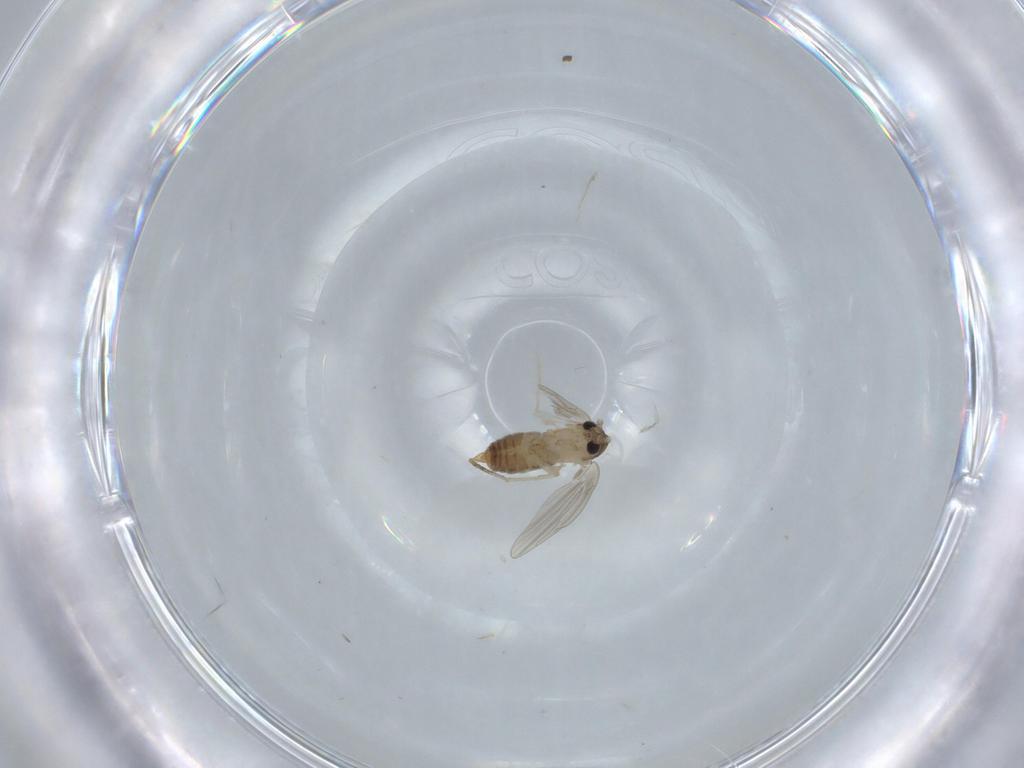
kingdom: Animalia
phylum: Arthropoda
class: Insecta
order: Diptera
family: Psychodidae
